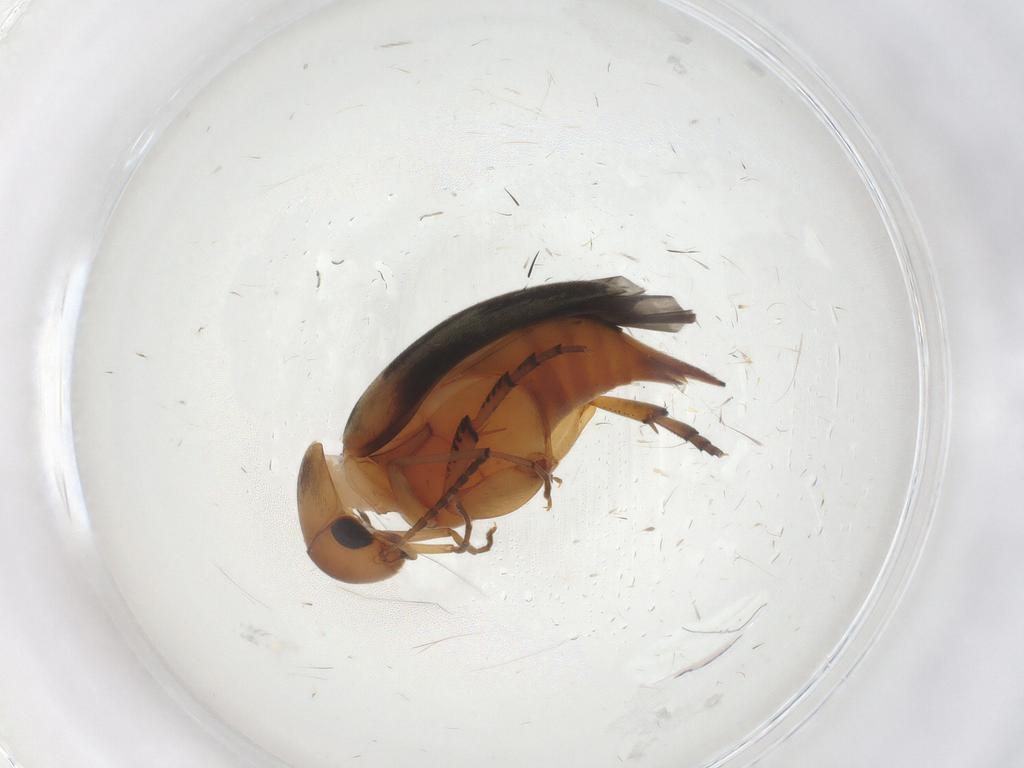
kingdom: Animalia
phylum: Arthropoda
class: Insecta
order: Coleoptera
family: Mordellidae
